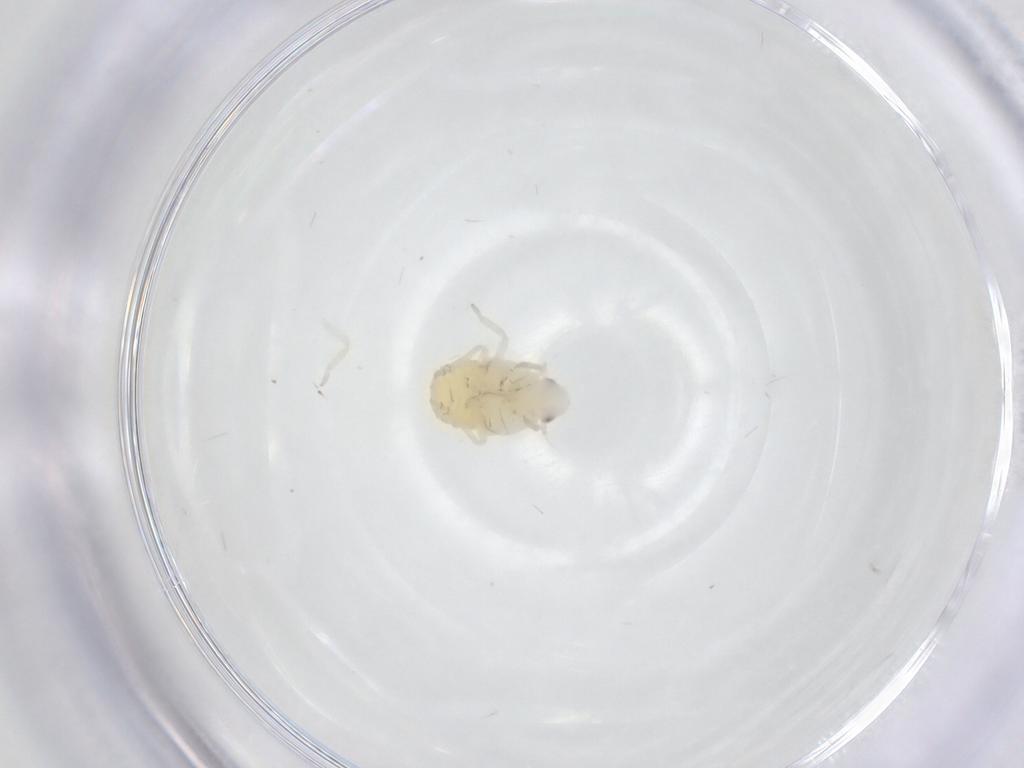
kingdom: Animalia
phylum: Arthropoda
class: Insecta
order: Hemiptera
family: Fulgoroidea_incertae_sedis
